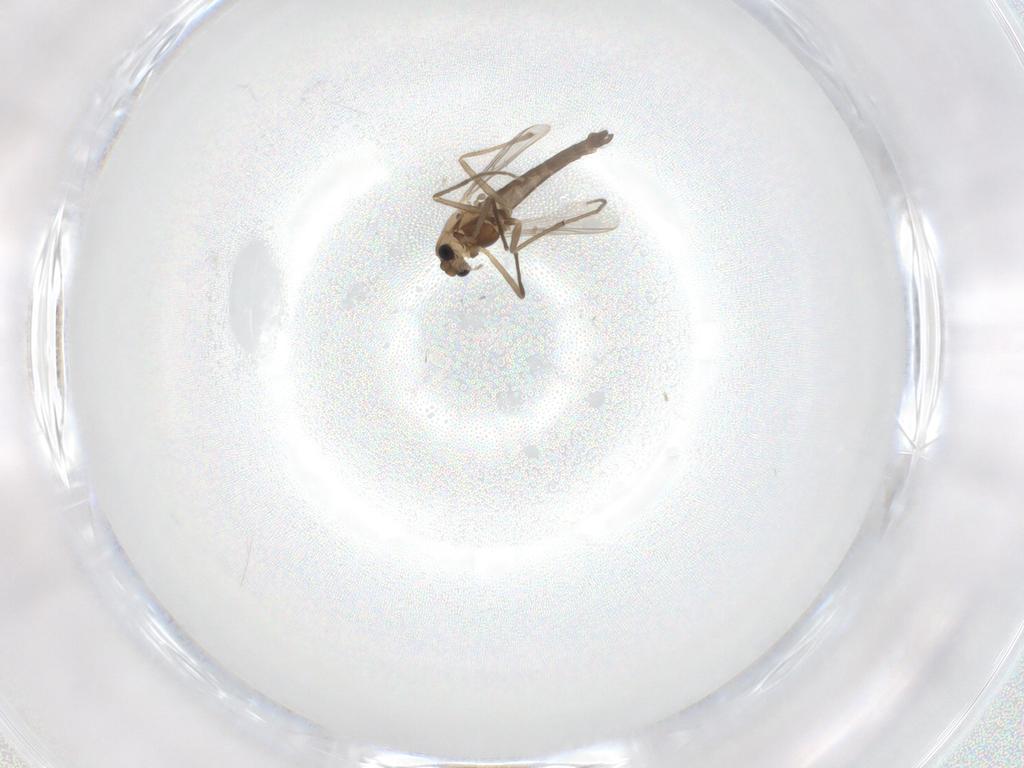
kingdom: Animalia
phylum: Arthropoda
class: Insecta
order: Diptera
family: Chironomidae
